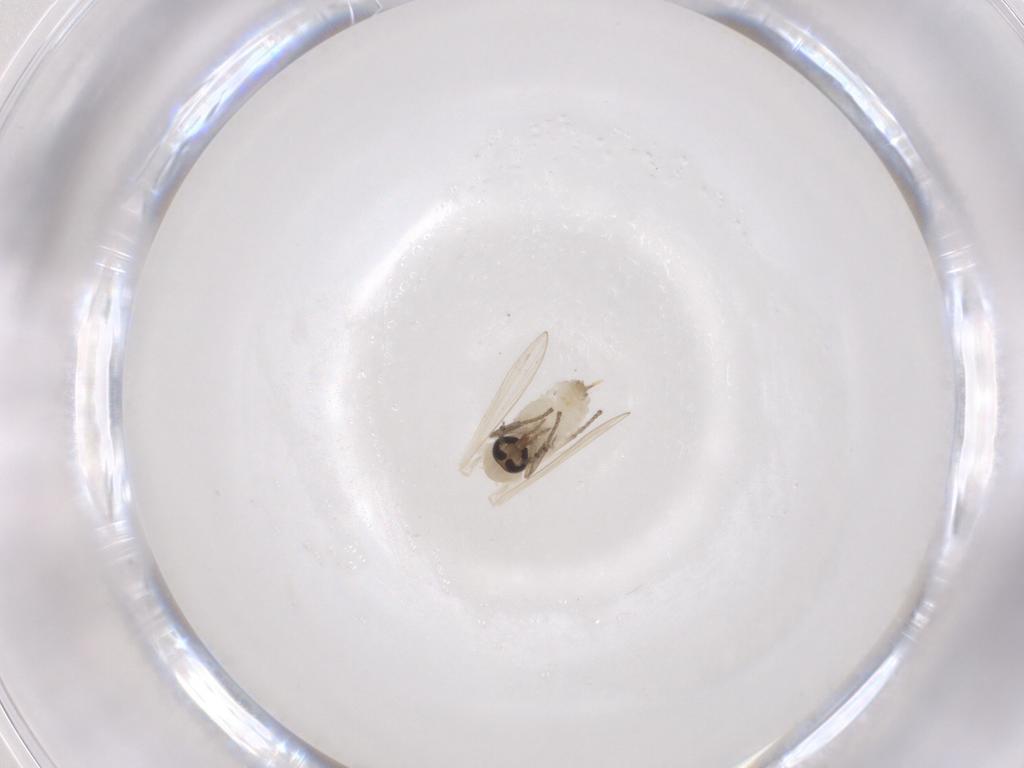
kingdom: Animalia
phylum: Arthropoda
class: Insecta
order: Diptera
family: Psychodidae
